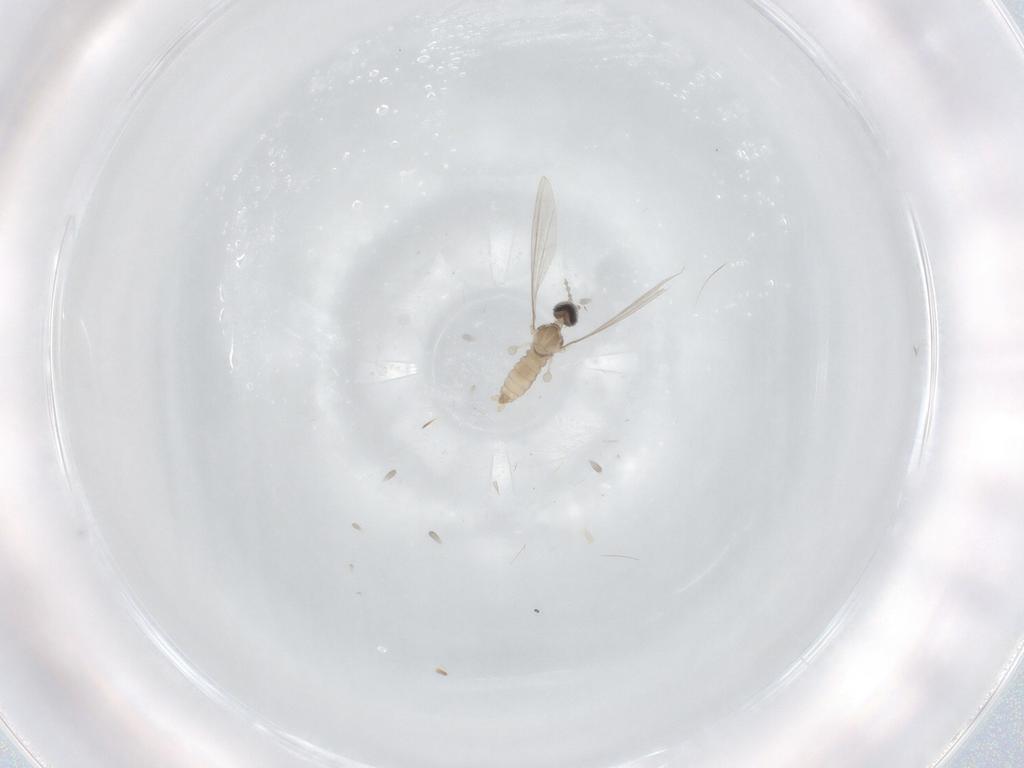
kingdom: Animalia
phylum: Arthropoda
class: Insecta
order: Diptera
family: Cecidomyiidae
